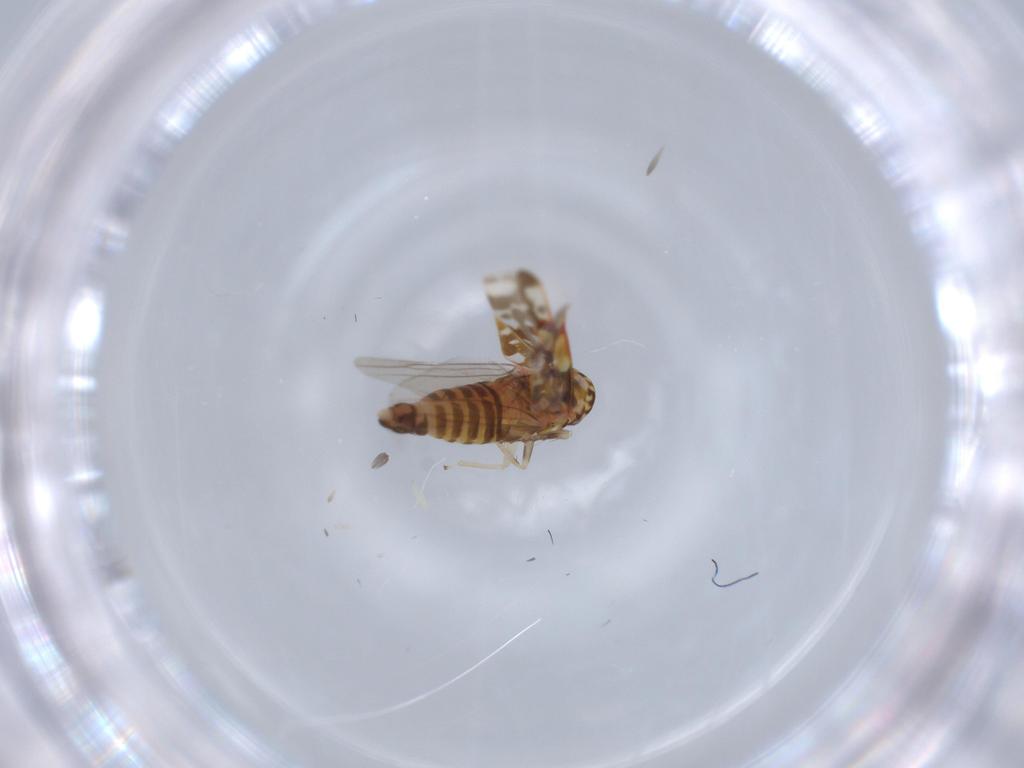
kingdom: Animalia
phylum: Arthropoda
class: Insecta
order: Hemiptera
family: Cicadellidae
